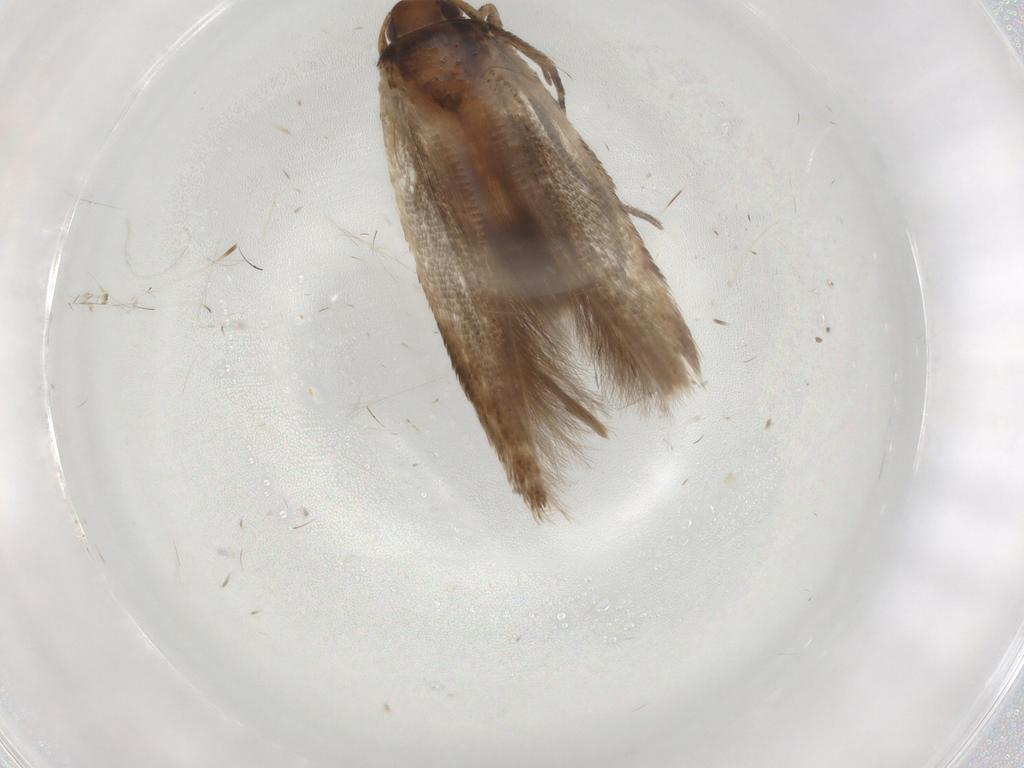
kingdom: Animalia
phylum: Arthropoda
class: Insecta
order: Lepidoptera
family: Cosmopterigidae
